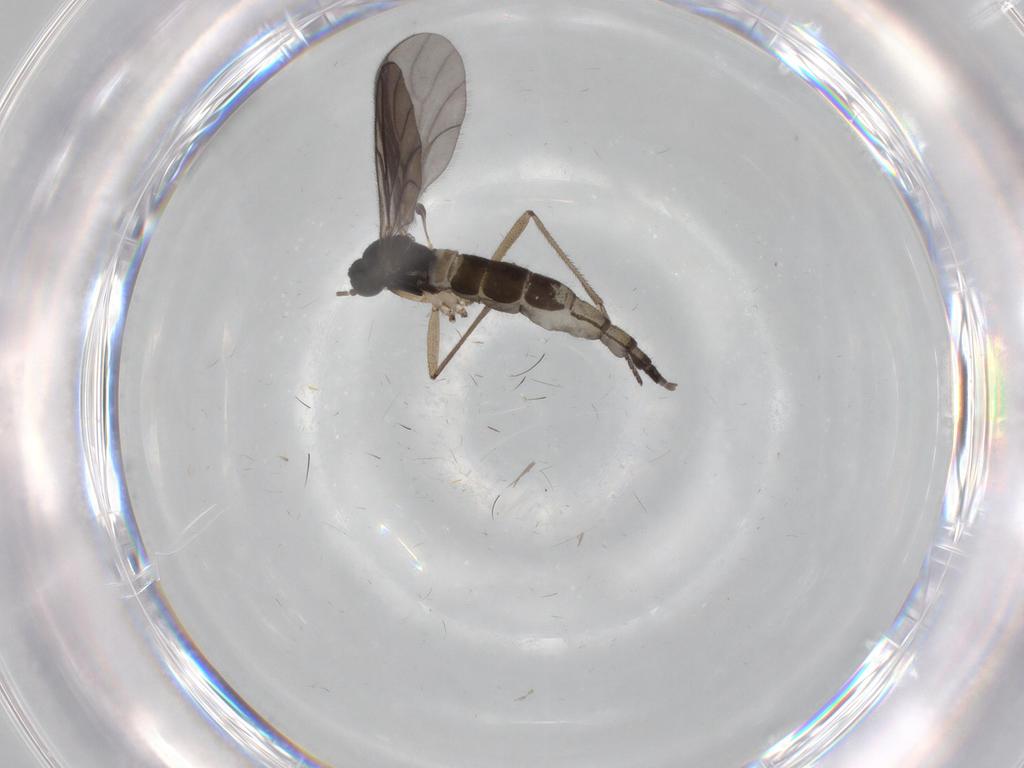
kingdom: Animalia
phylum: Arthropoda
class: Insecta
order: Diptera
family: Sciaridae
